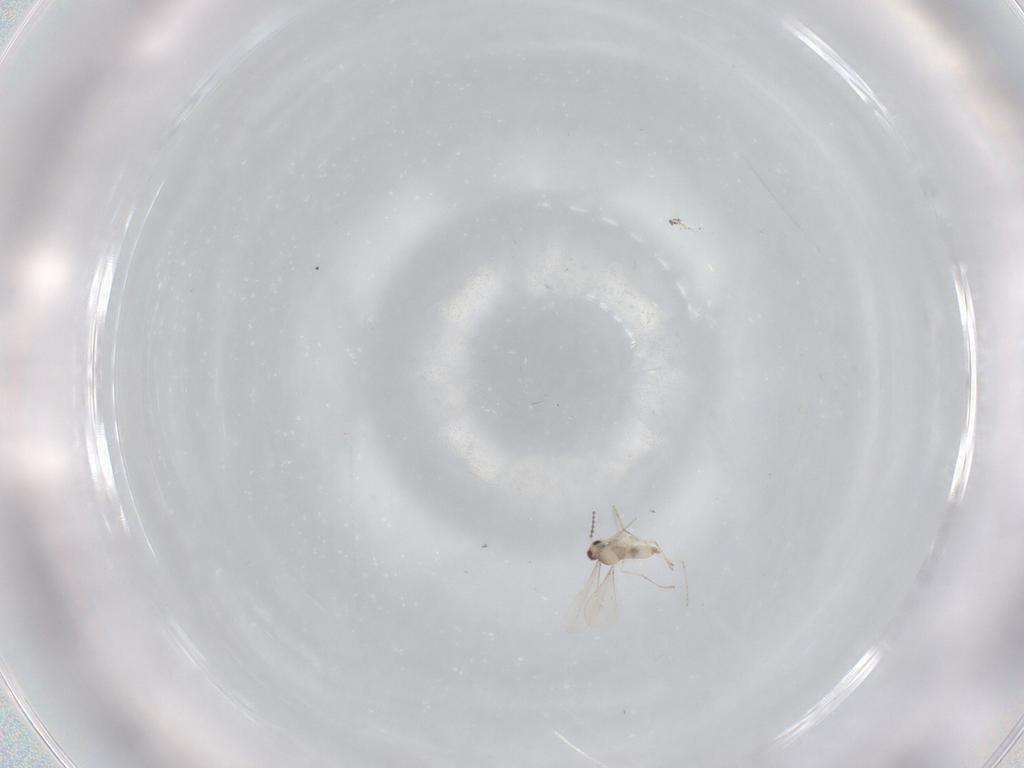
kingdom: Animalia
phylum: Arthropoda
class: Insecta
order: Diptera
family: Cecidomyiidae
